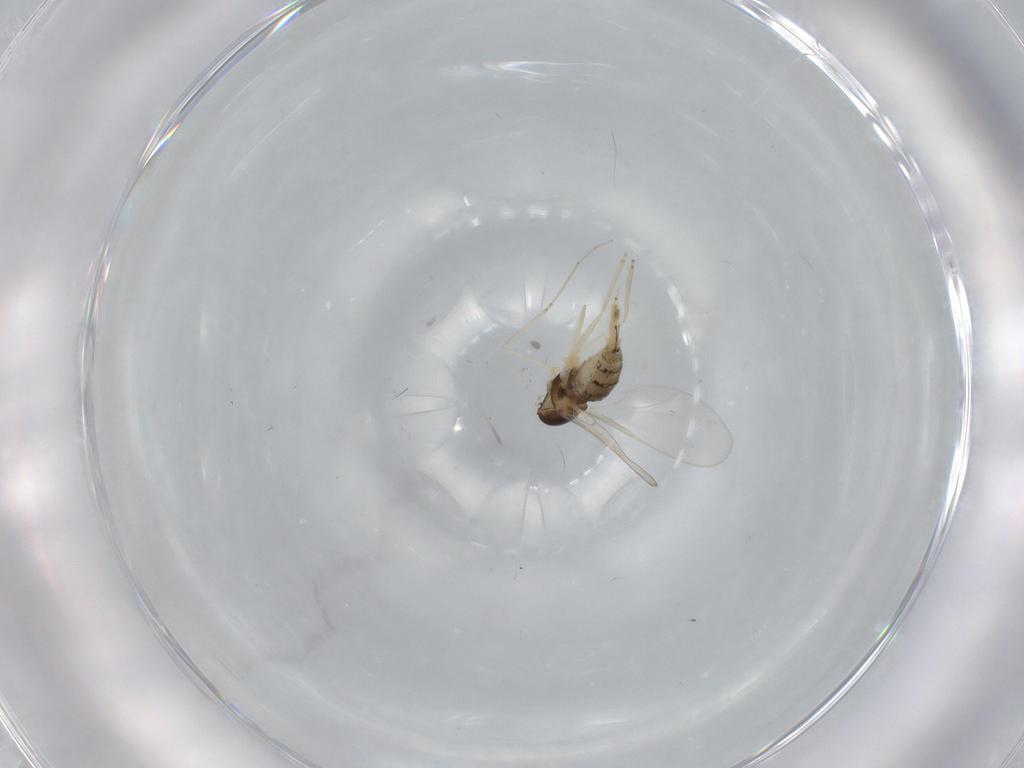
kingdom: Animalia
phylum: Arthropoda
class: Insecta
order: Diptera
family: Cecidomyiidae
